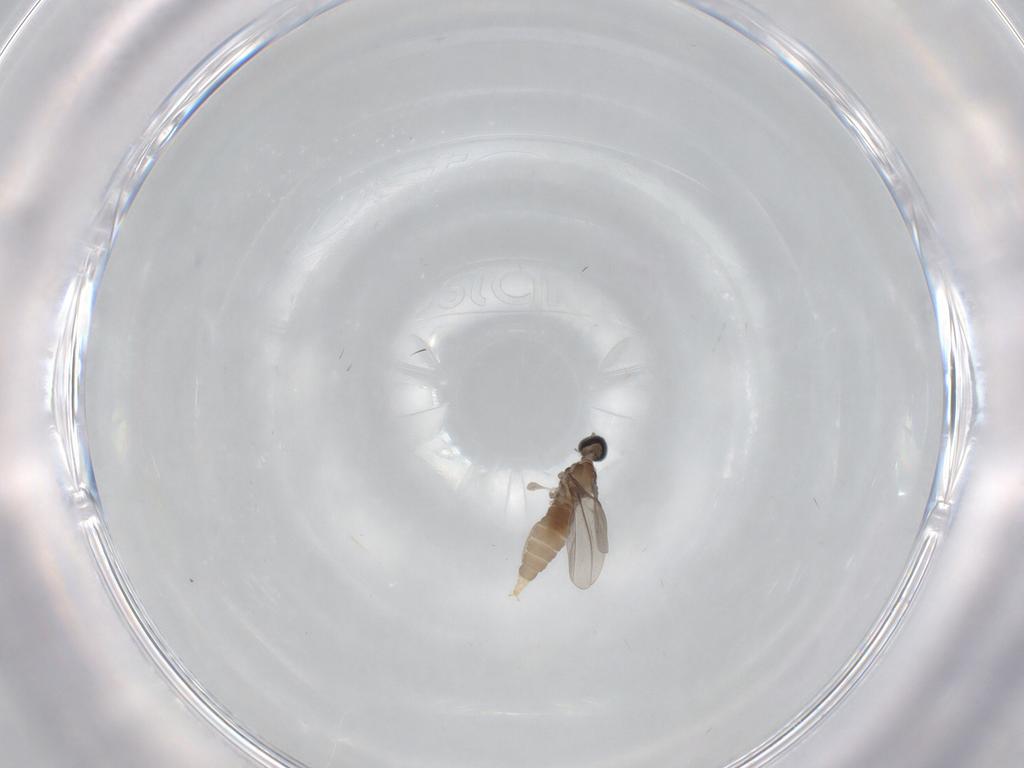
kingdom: Animalia
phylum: Arthropoda
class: Insecta
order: Diptera
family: Cecidomyiidae
